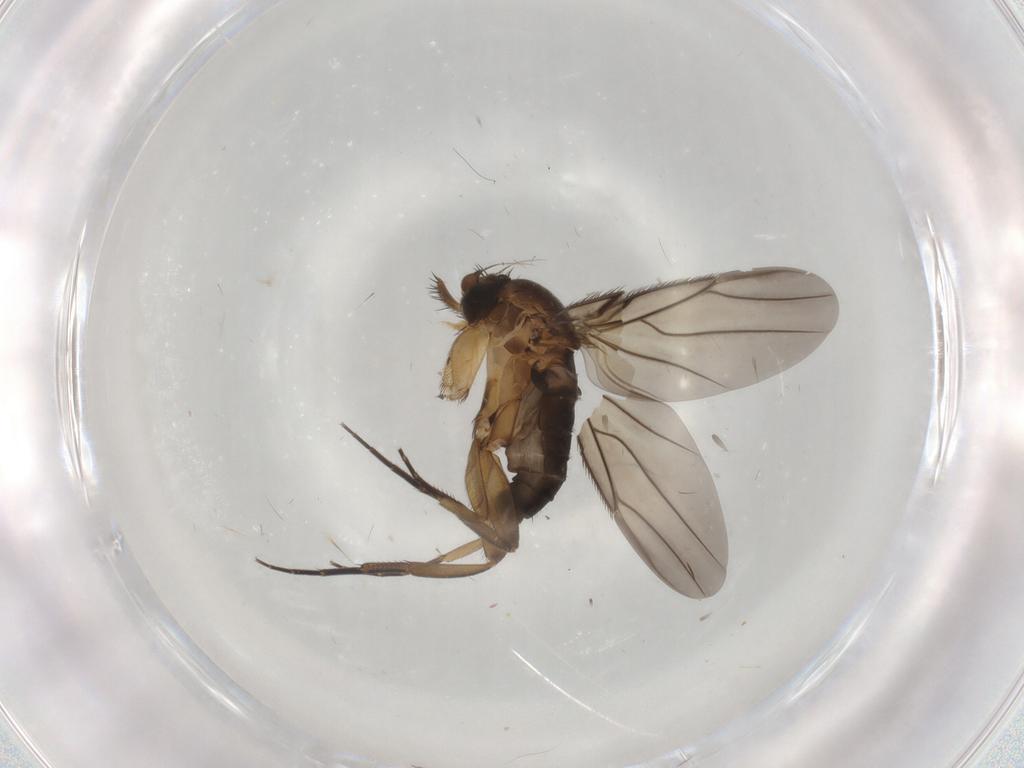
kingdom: Animalia
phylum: Arthropoda
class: Insecta
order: Diptera
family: Phoridae
